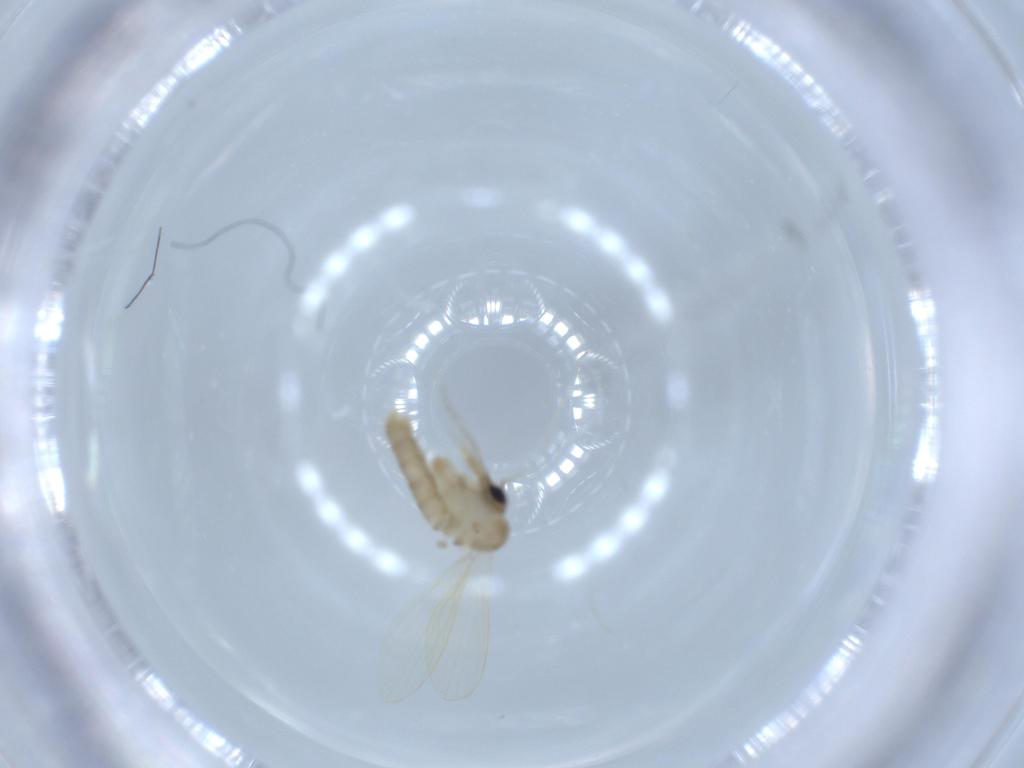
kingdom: Animalia
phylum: Arthropoda
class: Insecta
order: Diptera
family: Psychodidae
